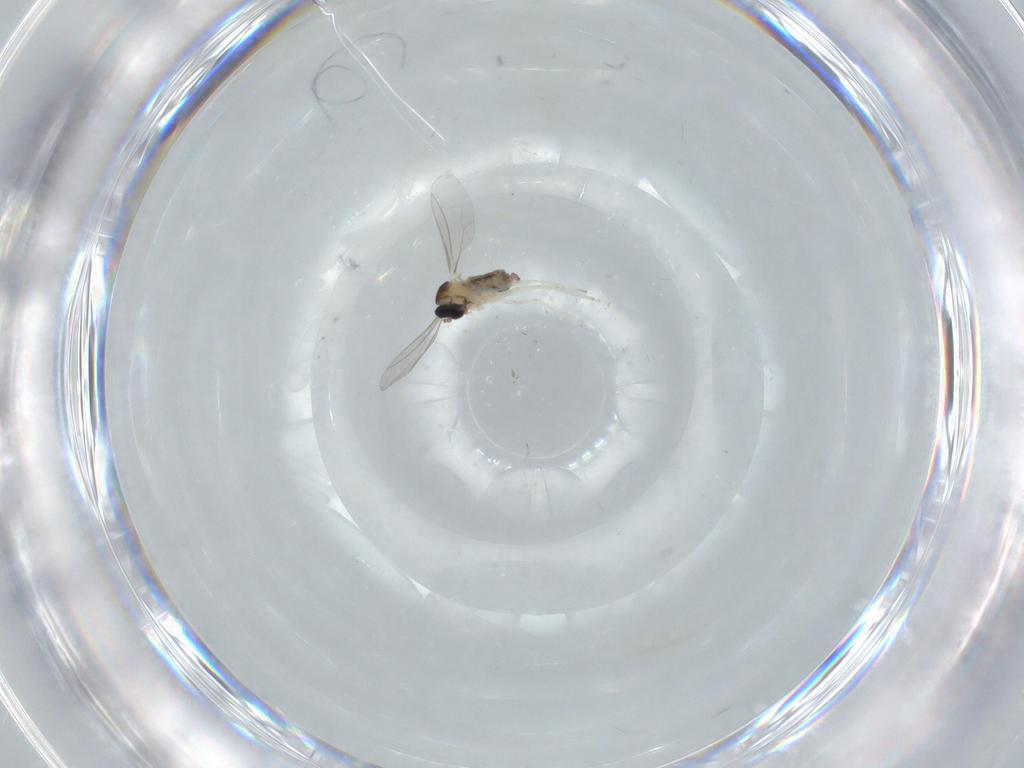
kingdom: Animalia
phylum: Arthropoda
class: Insecta
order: Diptera
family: Cecidomyiidae
